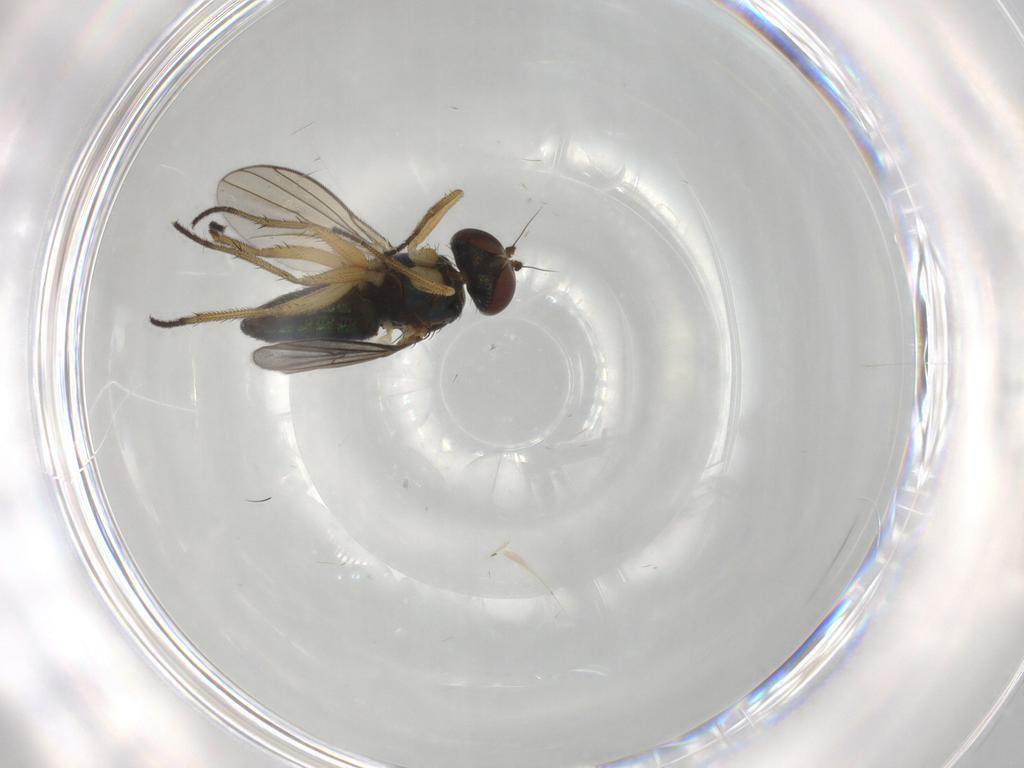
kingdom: Animalia
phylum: Arthropoda
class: Insecta
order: Diptera
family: Dolichopodidae
